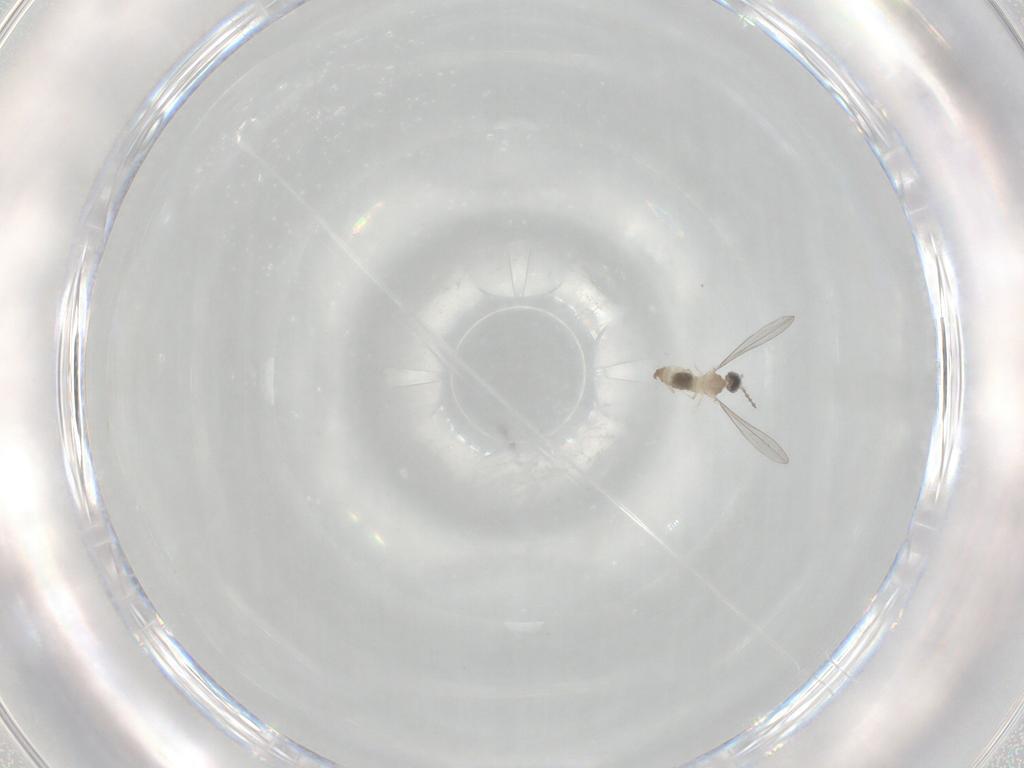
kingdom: Animalia
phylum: Arthropoda
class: Insecta
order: Diptera
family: Cecidomyiidae
